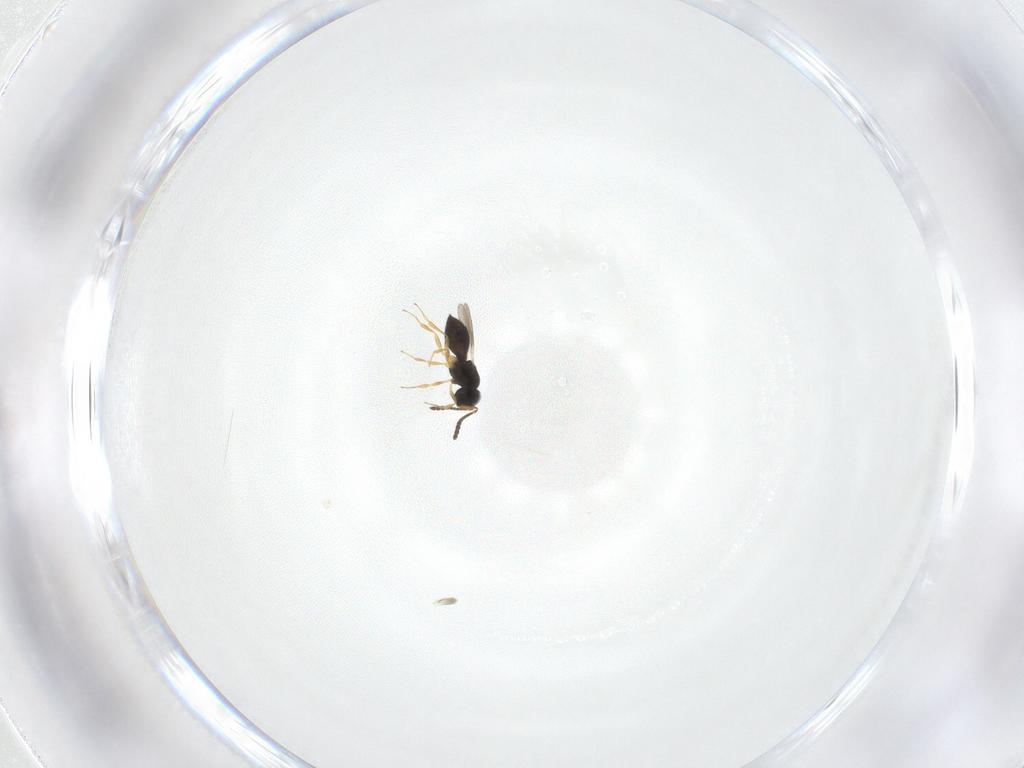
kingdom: Animalia
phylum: Arthropoda
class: Insecta
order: Hymenoptera
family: Scelionidae
